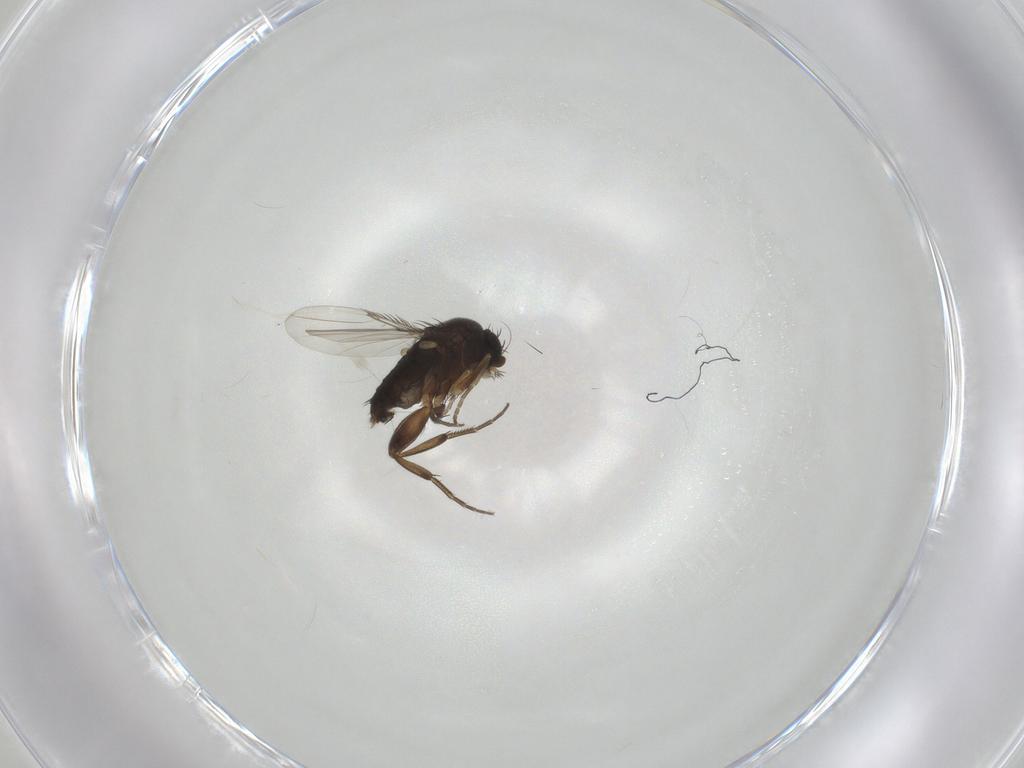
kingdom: Animalia
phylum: Arthropoda
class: Insecta
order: Diptera
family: Phoridae
